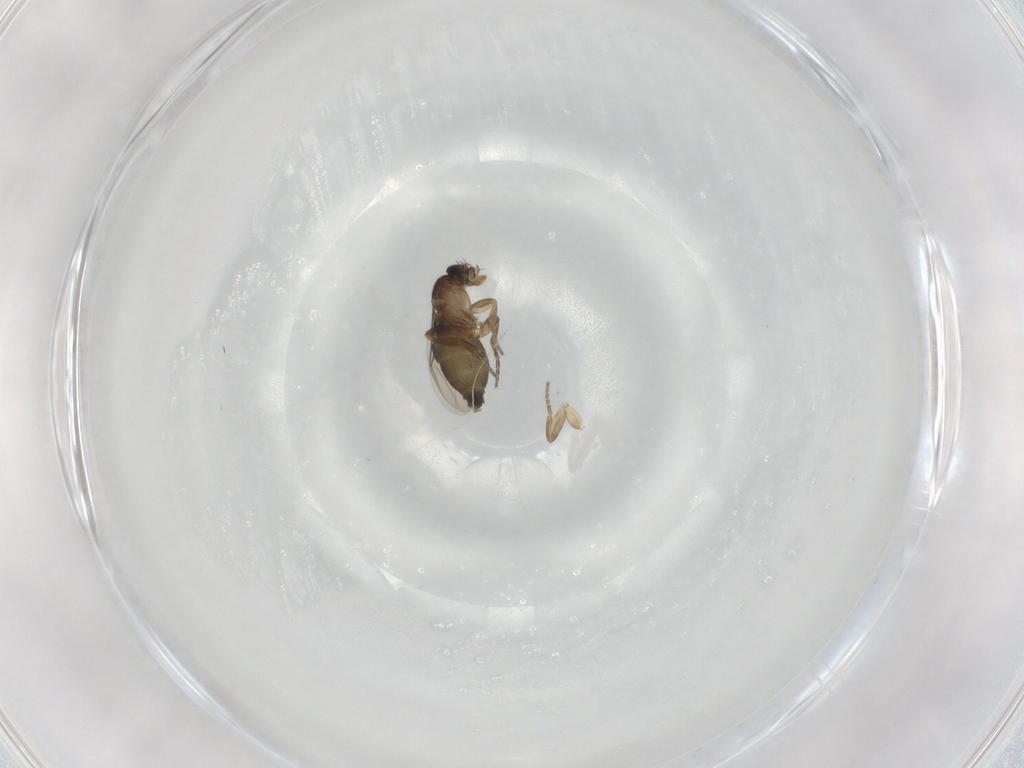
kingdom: Animalia
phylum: Arthropoda
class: Insecta
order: Diptera
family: Phoridae
